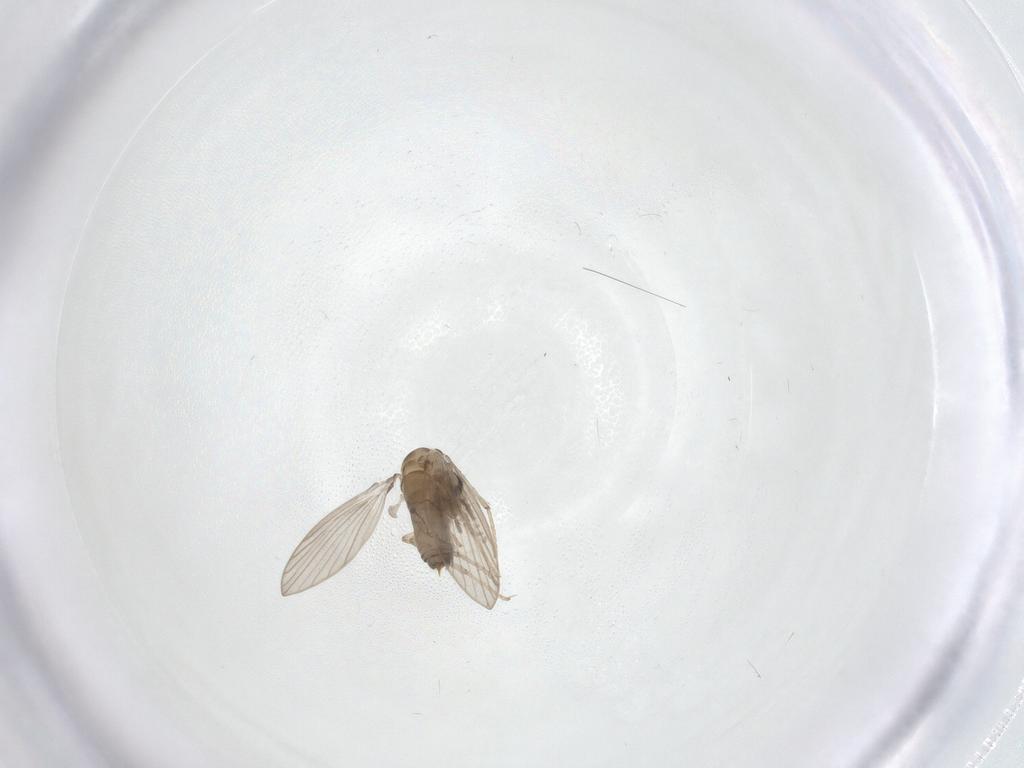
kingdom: Animalia
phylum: Arthropoda
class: Insecta
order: Diptera
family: Psychodidae
